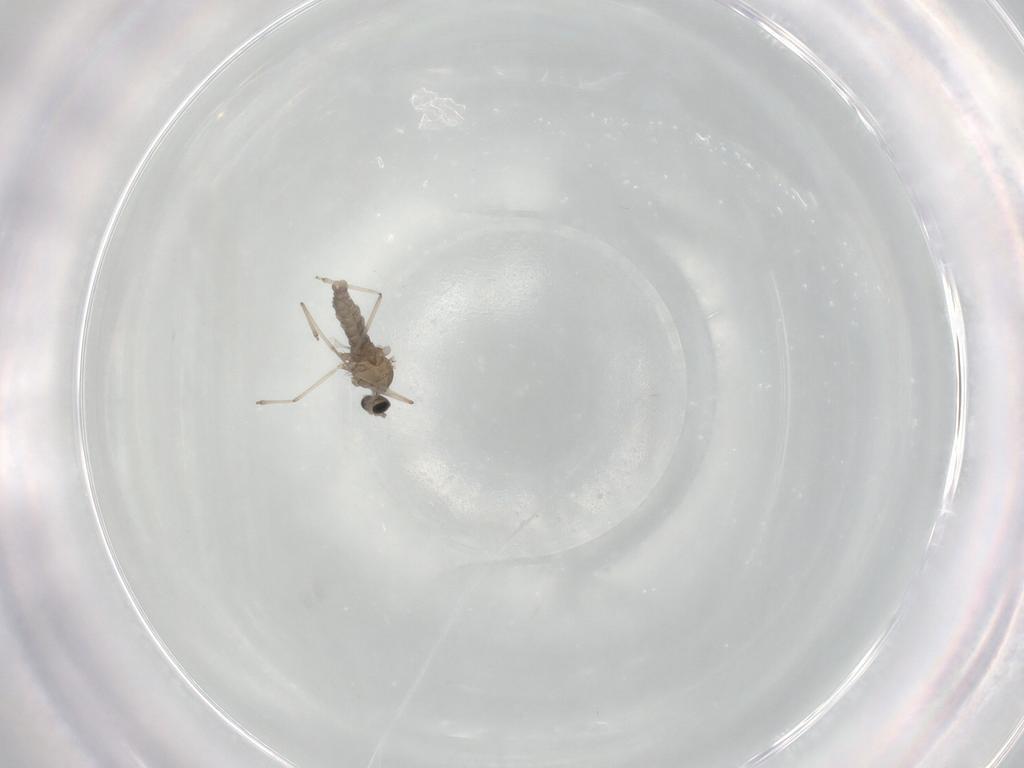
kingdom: Animalia
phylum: Arthropoda
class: Insecta
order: Diptera
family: Cecidomyiidae
